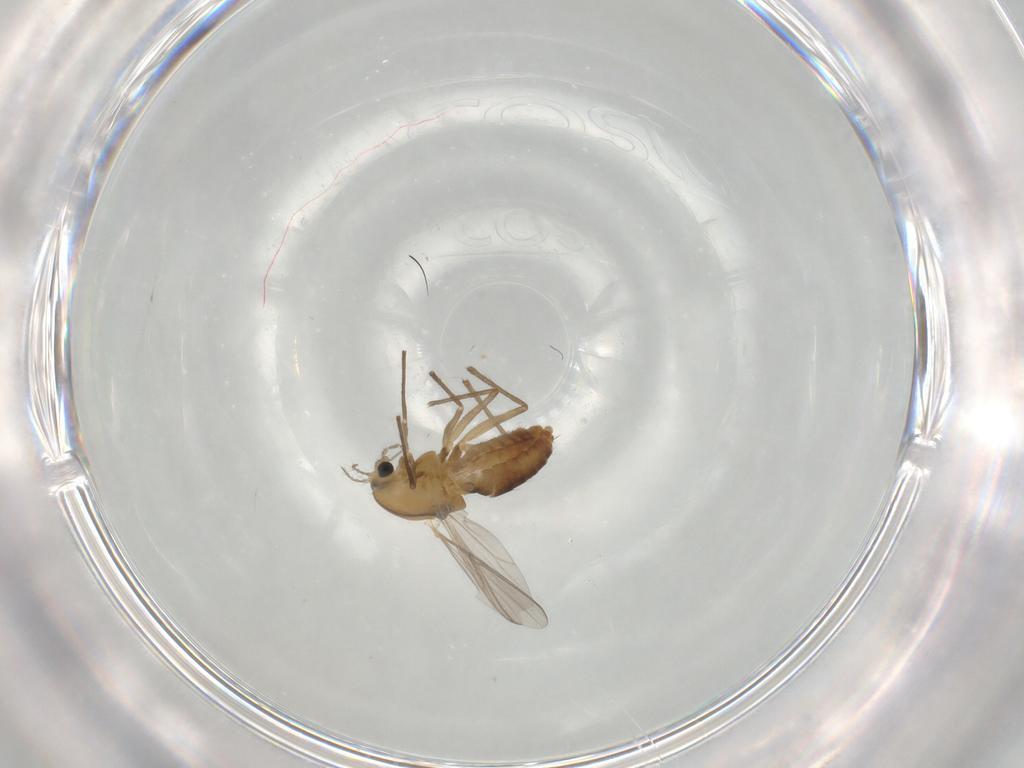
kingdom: Animalia
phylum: Arthropoda
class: Insecta
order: Diptera
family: Chironomidae
